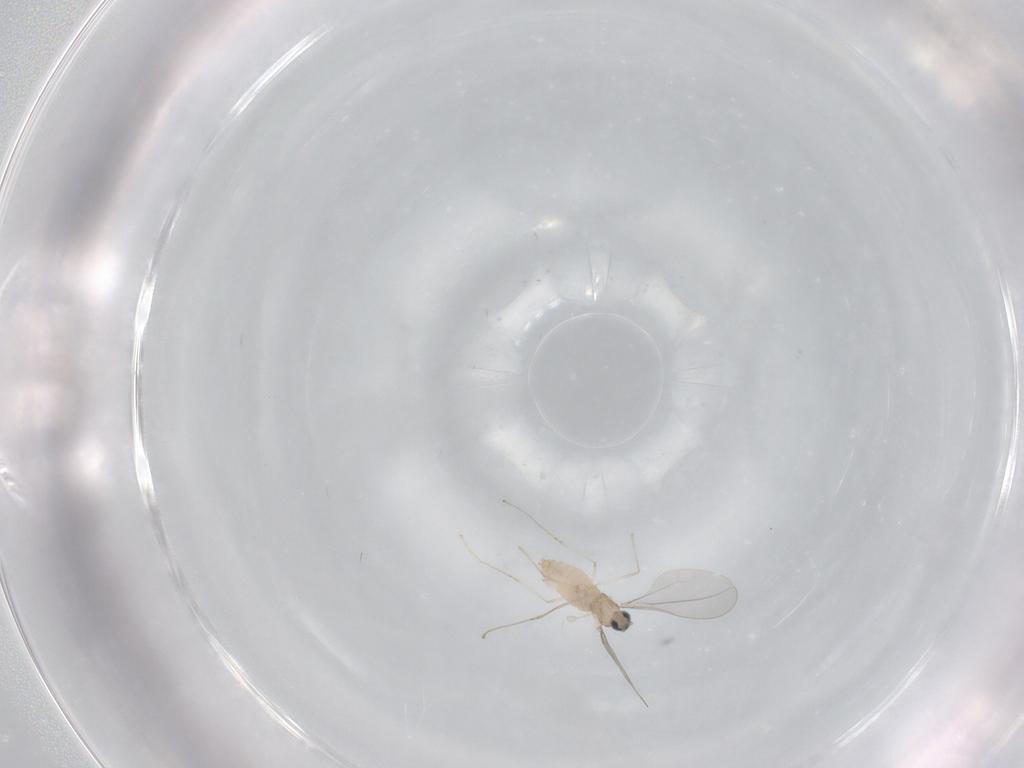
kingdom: Animalia
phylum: Arthropoda
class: Insecta
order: Diptera
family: Cecidomyiidae
